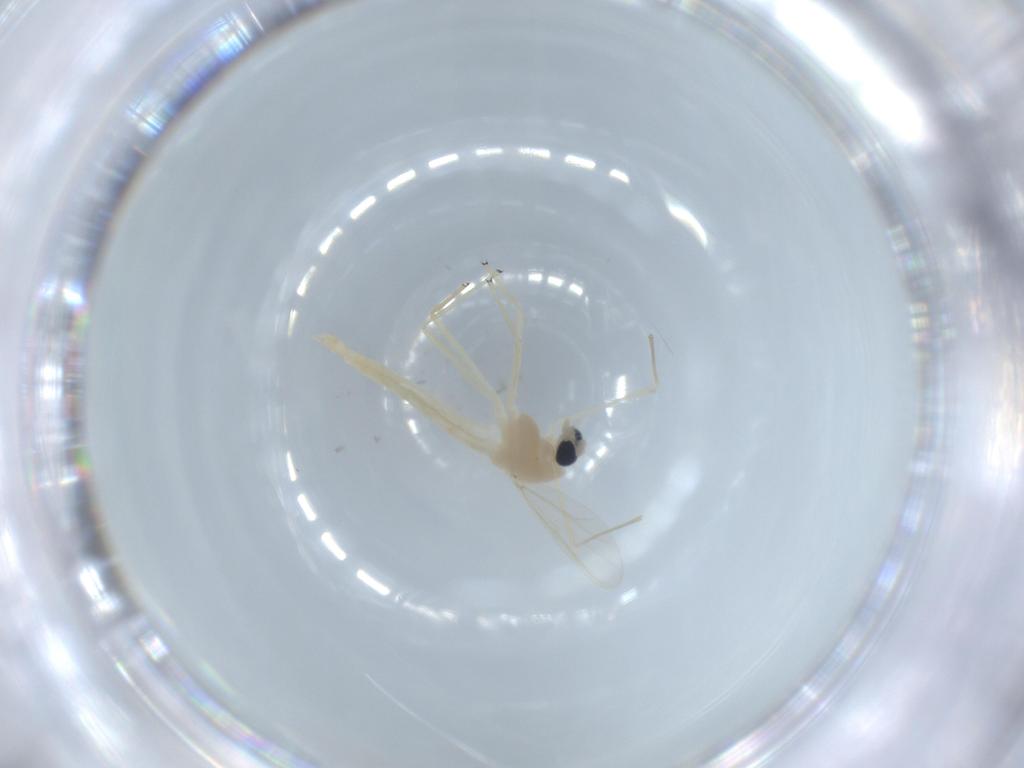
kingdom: Animalia
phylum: Arthropoda
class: Insecta
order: Diptera
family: Chironomidae
